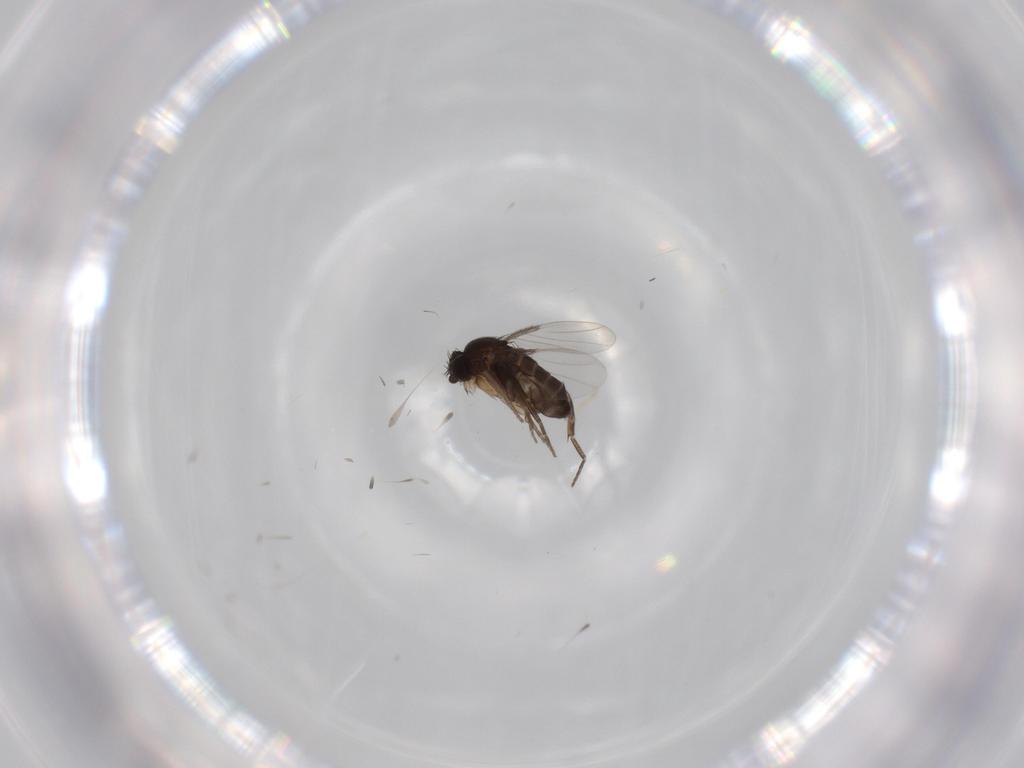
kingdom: Animalia
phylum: Arthropoda
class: Insecta
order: Diptera
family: Phoridae
